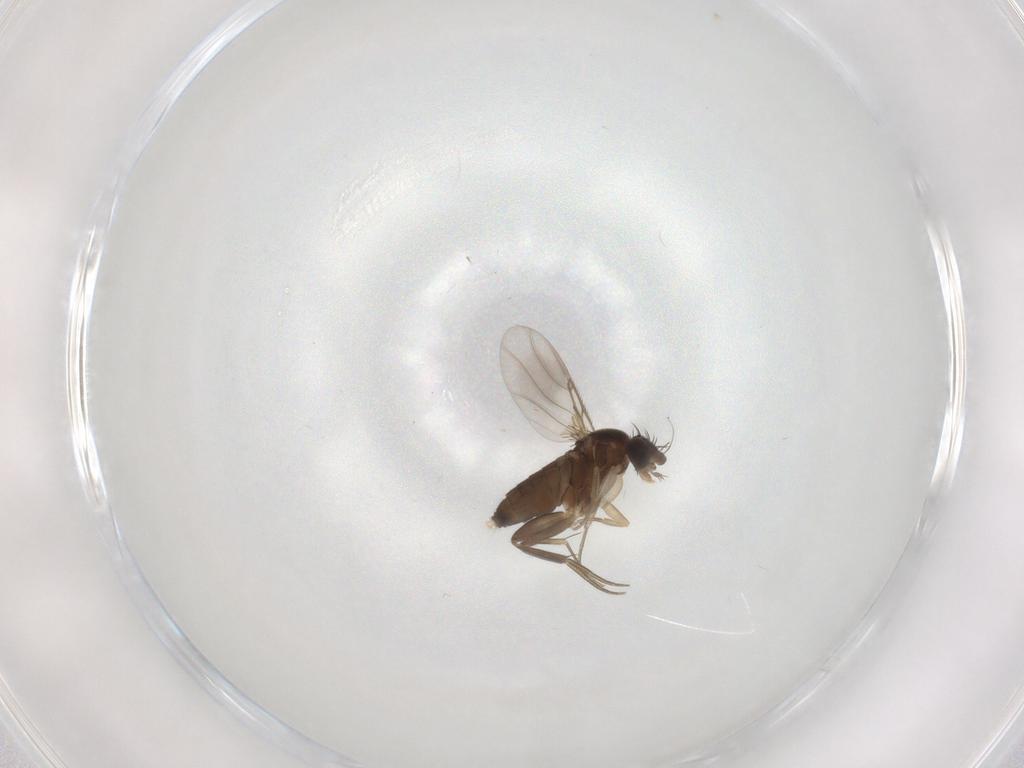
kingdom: Animalia
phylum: Arthropoda
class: Insecta
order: Diptera
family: Phoridae
